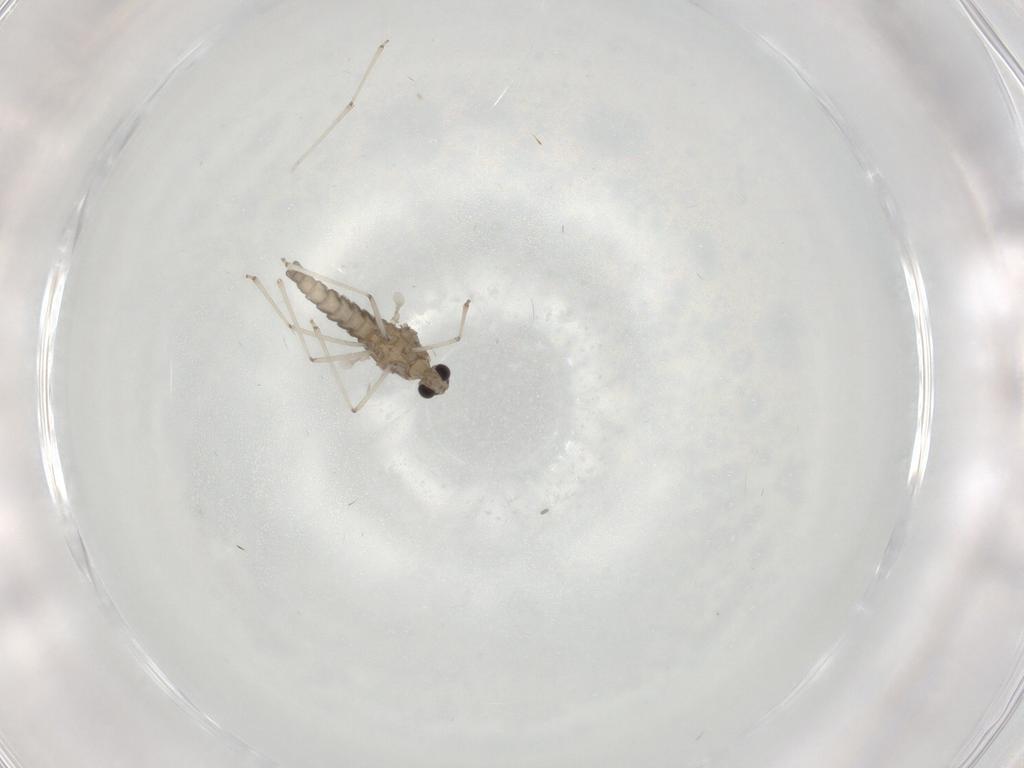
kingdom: Animalia
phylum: Arthropoda
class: Insecta
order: Diptera
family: Cecidomyiidae
